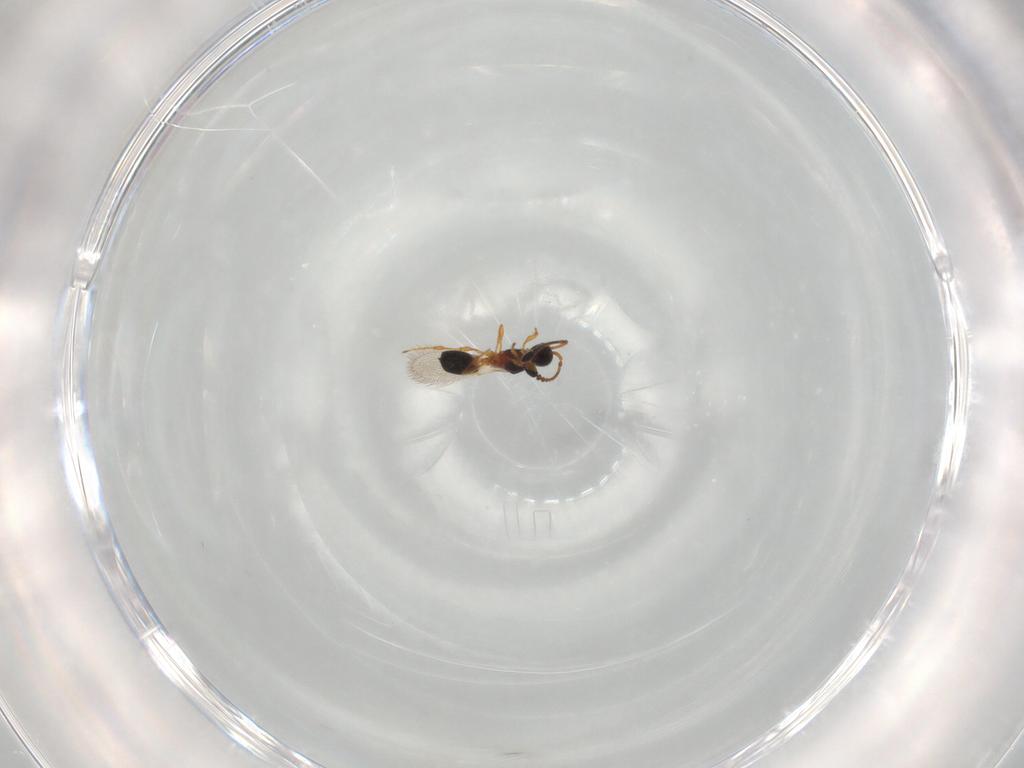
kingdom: Animalia
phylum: Arthropoda
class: Insecta
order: Hymenoptera
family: Diapriidae
